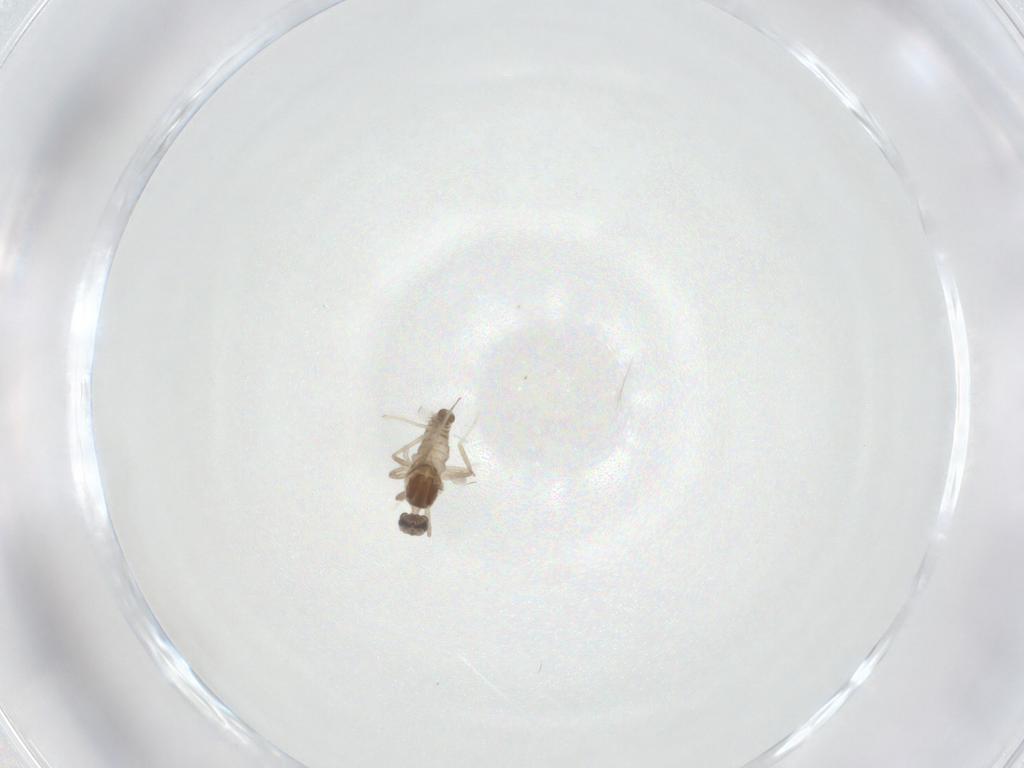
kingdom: Animalia
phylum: Arthropoda
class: Insecta
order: Diptera
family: Cecidomyiidae
